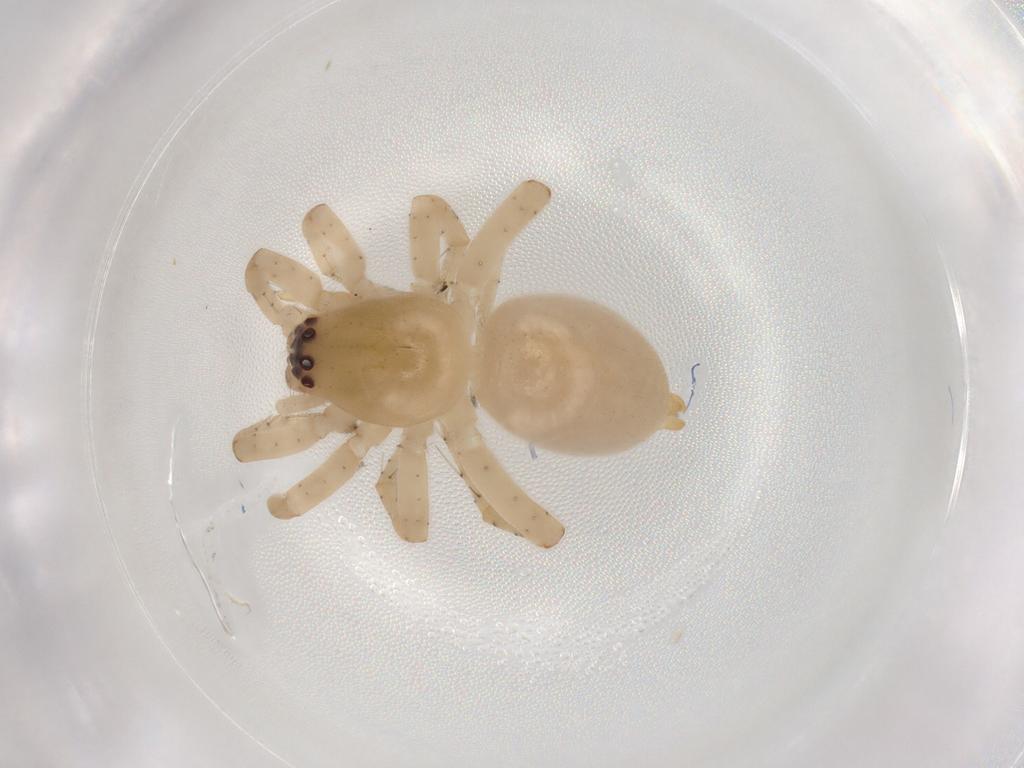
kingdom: Animalia
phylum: Arthropoda
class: Arachnida
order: Araneae
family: Clubionidae
